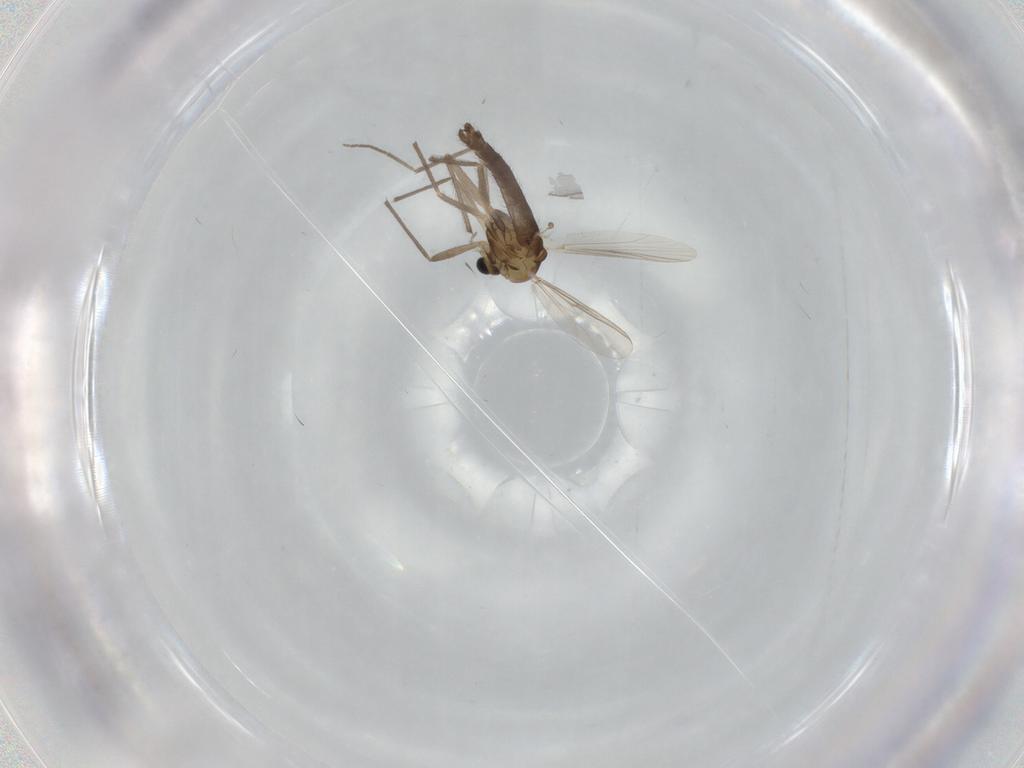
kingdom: Animalia
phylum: Arthropoda
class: Insecta
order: Diptera
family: Chironomidae
